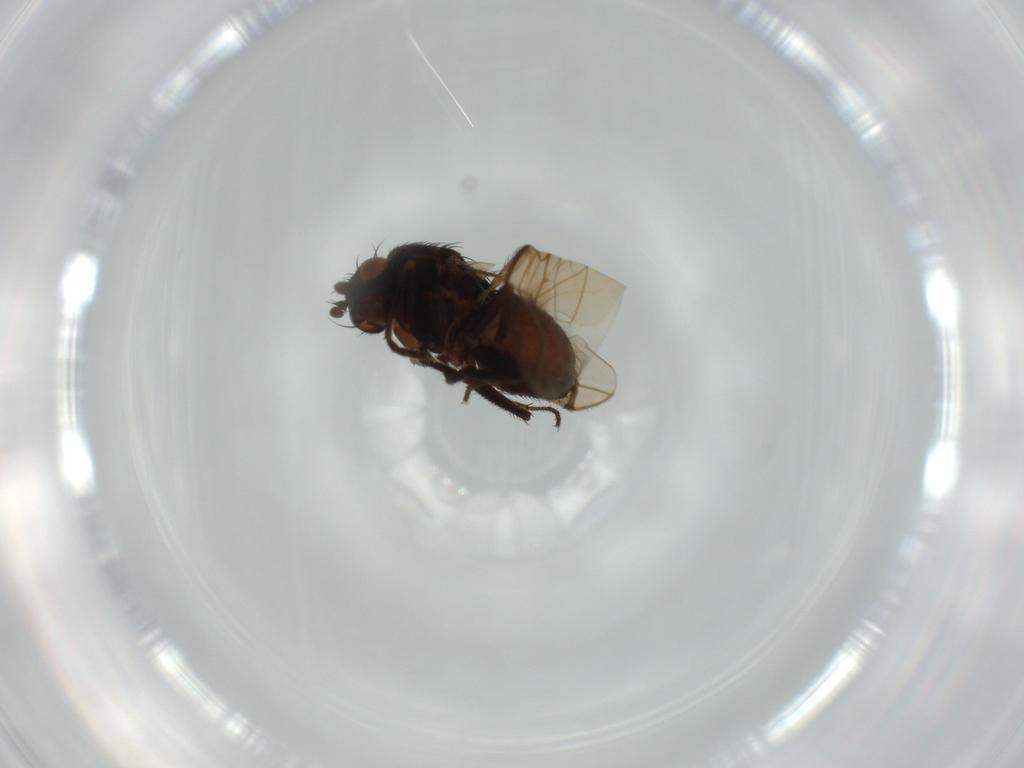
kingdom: Animalia
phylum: Arthropoda
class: Insecta
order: Diptera
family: Sphaeroceridae
